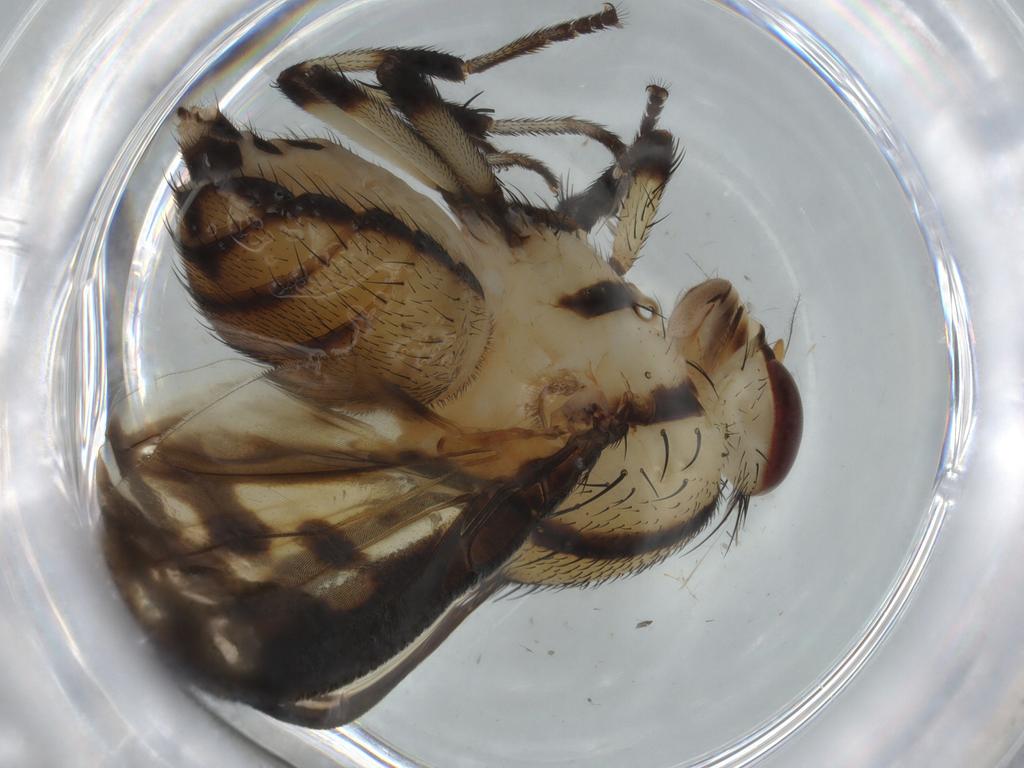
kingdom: Animalia
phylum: Arthropoda
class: Insecta
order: Diptera
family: Cecidomyiidae
